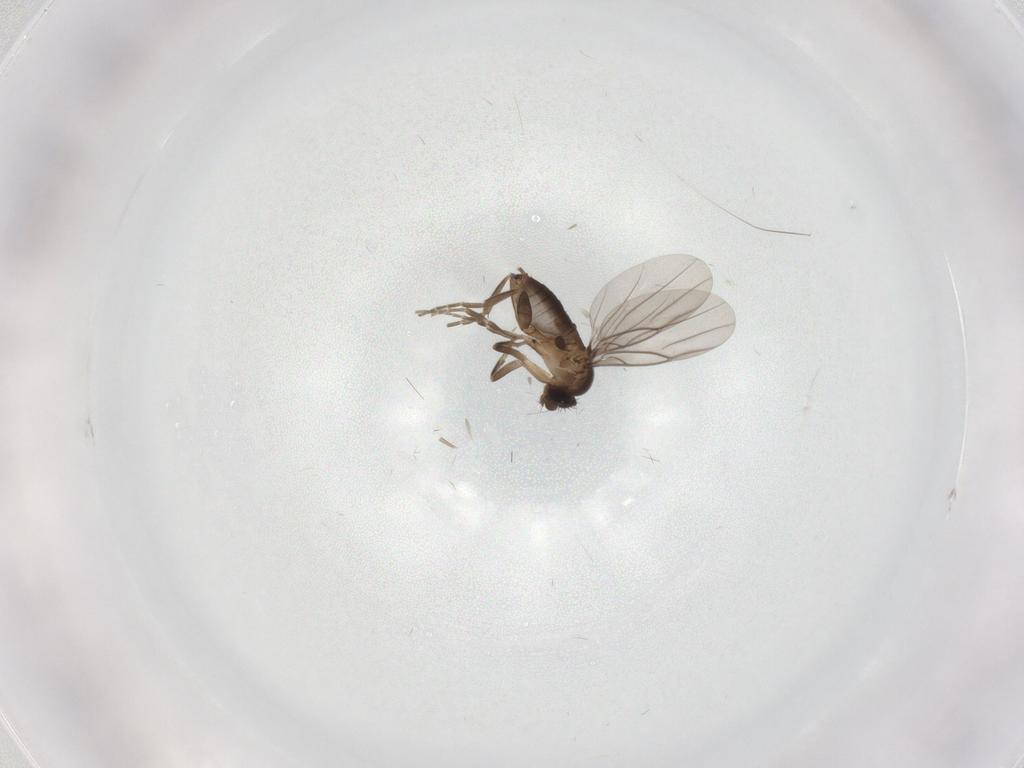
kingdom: Animalia
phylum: Arthropoda
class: Insecta
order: Diptera
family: Phoridae
